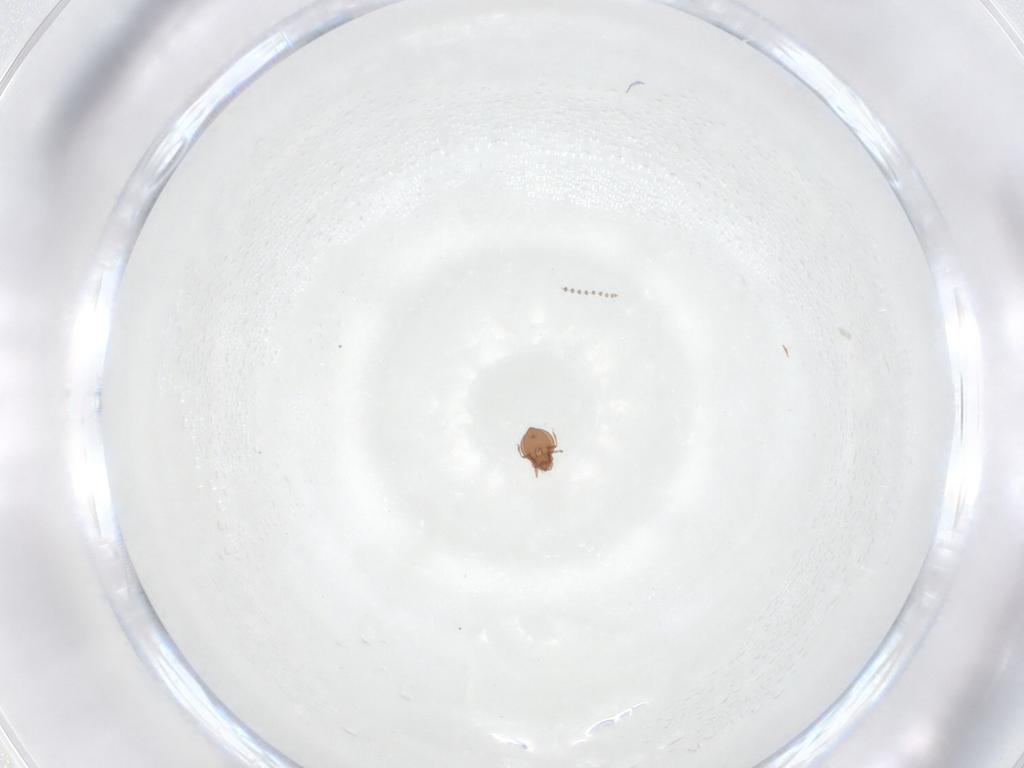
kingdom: Animalia
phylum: Arthropoda
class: Arachnida
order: Sarcoptiformes
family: Scheloribatidae
